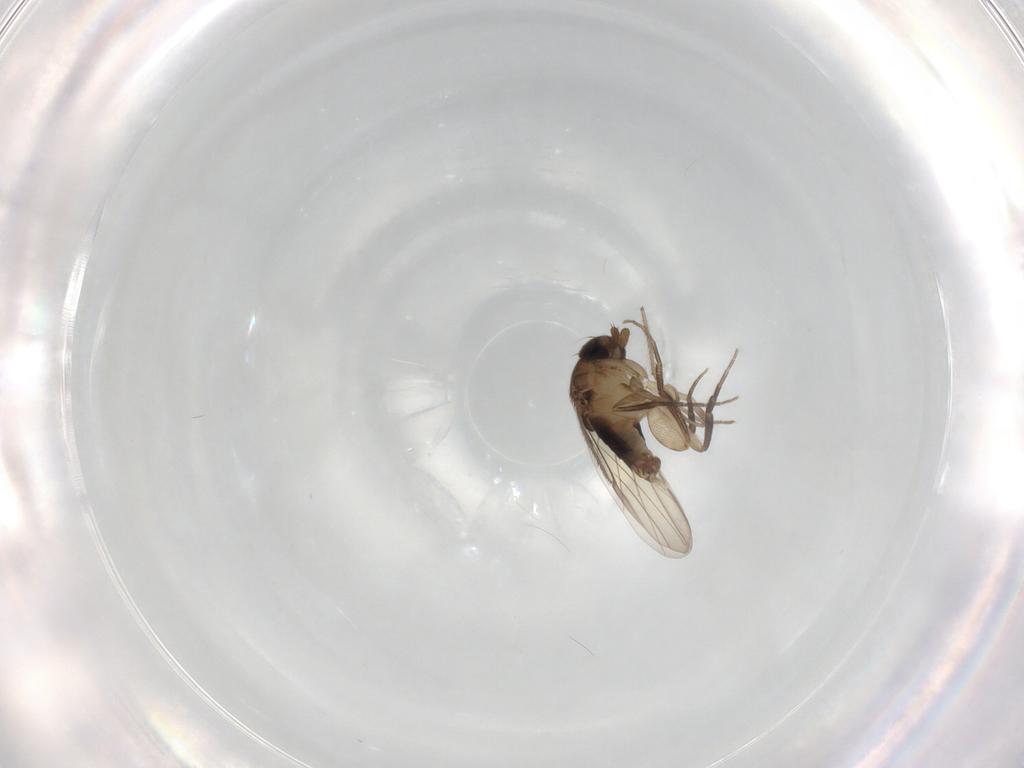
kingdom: Animalia
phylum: Arthropoda
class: Insecta
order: Diptera
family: Phoridae
